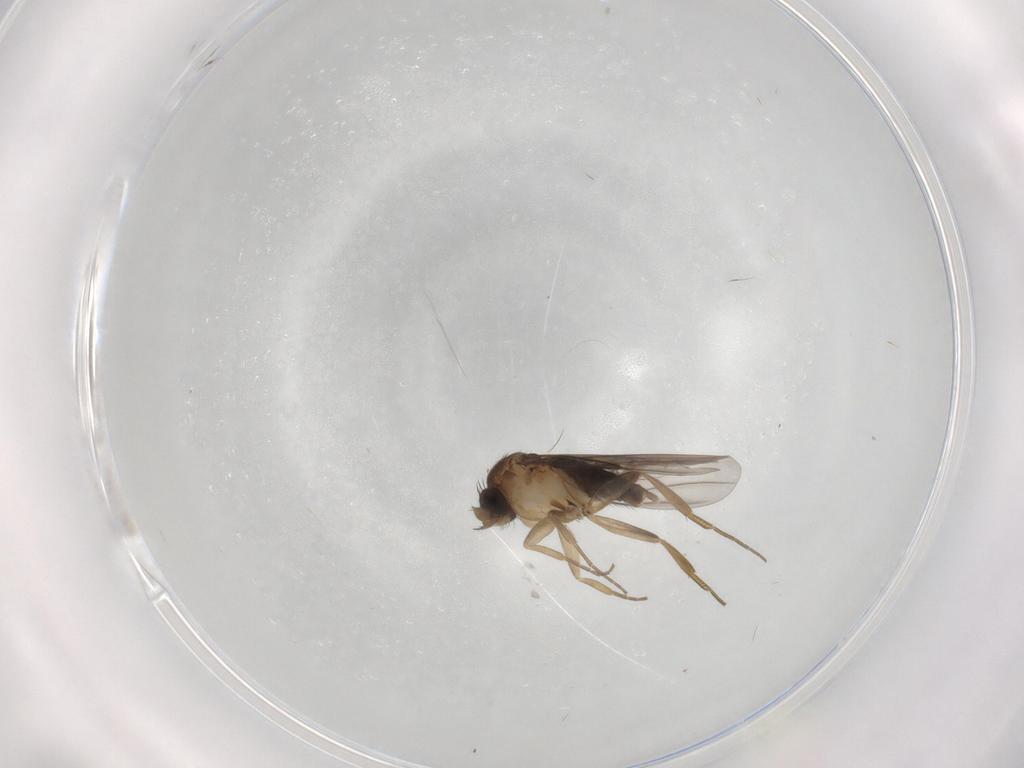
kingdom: Animalia
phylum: Arthropoda
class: Insecta
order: Diptera
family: Phoridae
